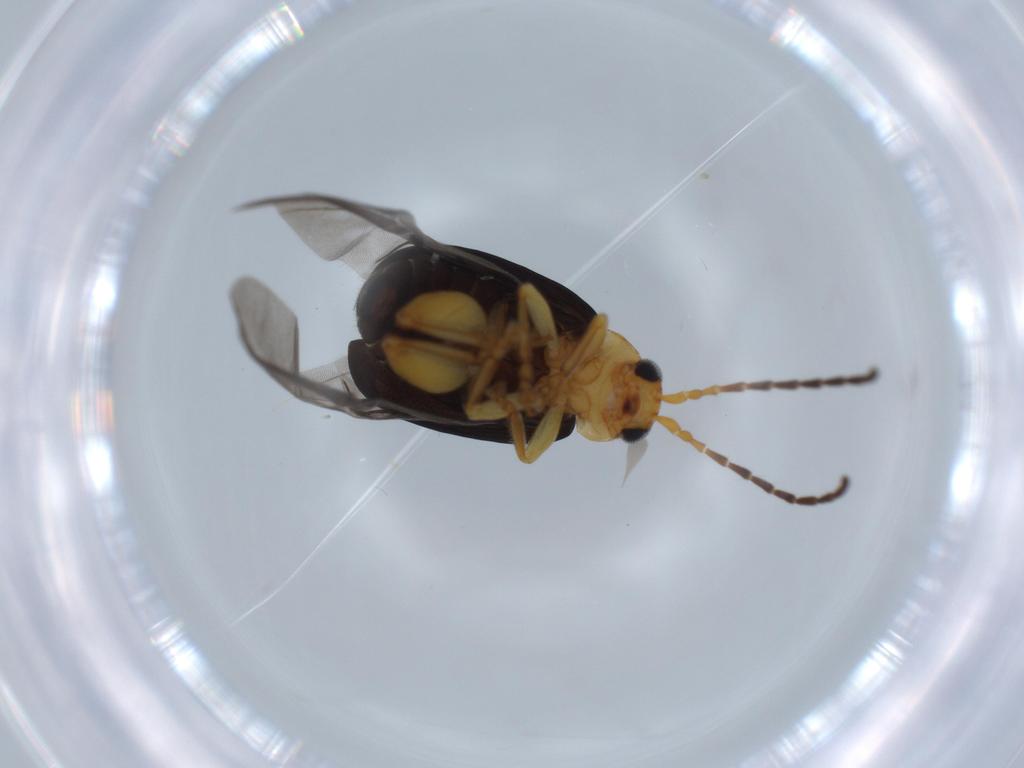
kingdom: Animalia
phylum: Arthropoda
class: Insecta
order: Coleoptera
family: Chrysomelidae
